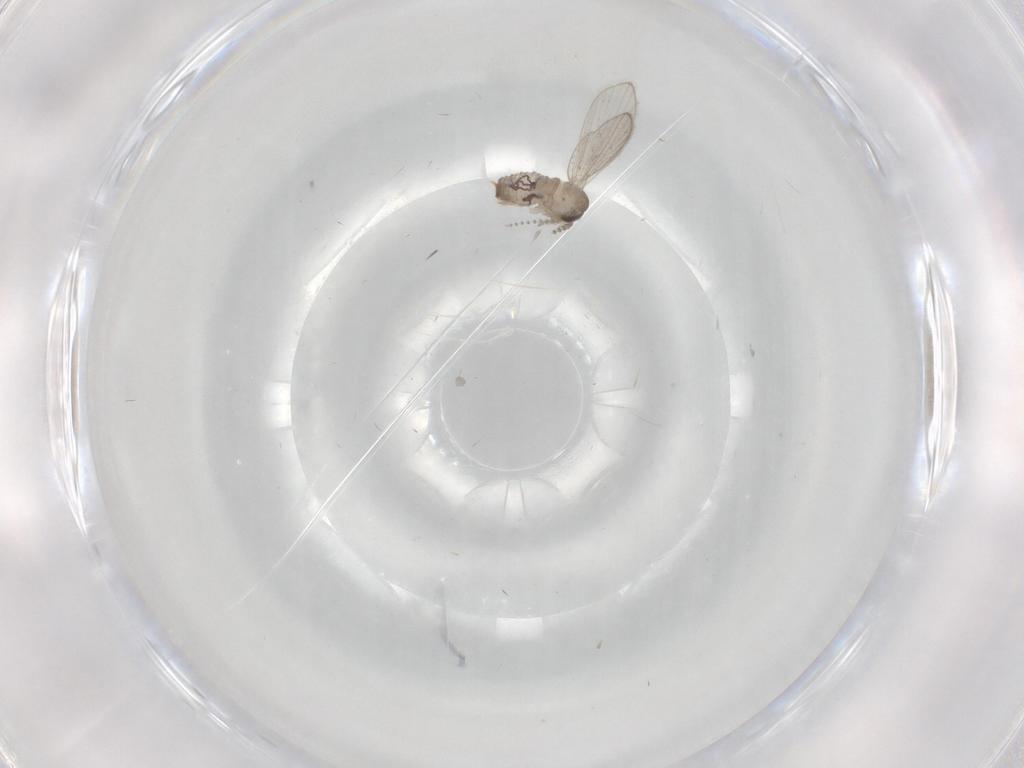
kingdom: Animalia
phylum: Arthropoda
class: Insecta
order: Diptera
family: Psychodidae
